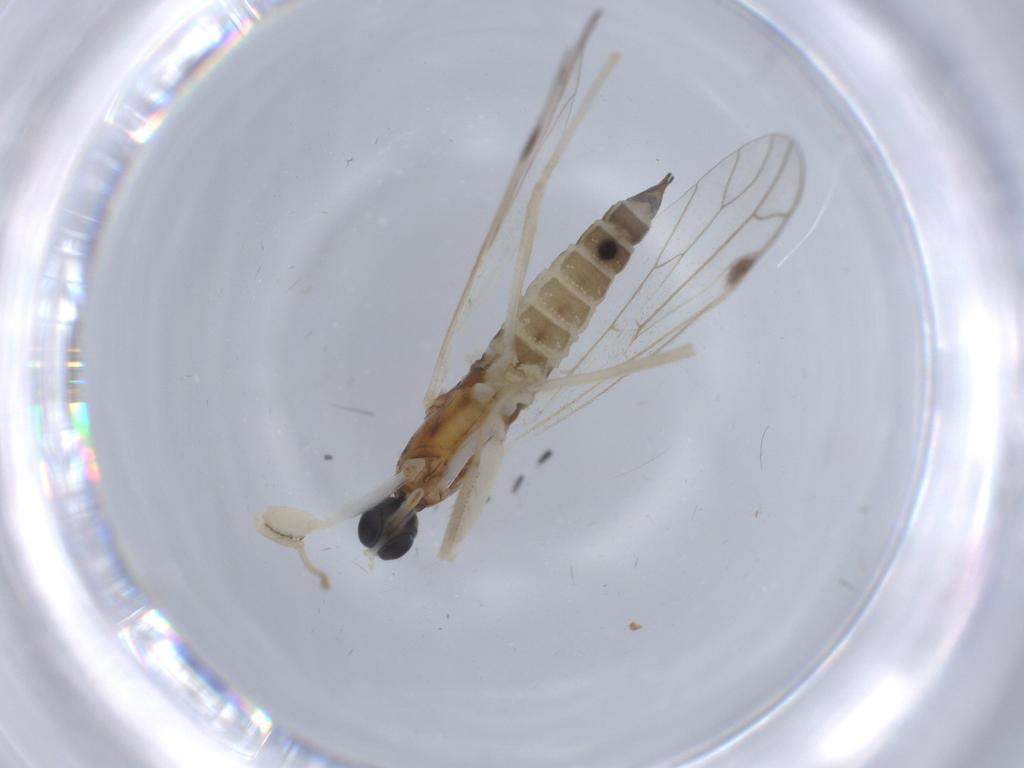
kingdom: Animalia
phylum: Arthropoda
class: Insecta
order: Diptera
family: Empididae
